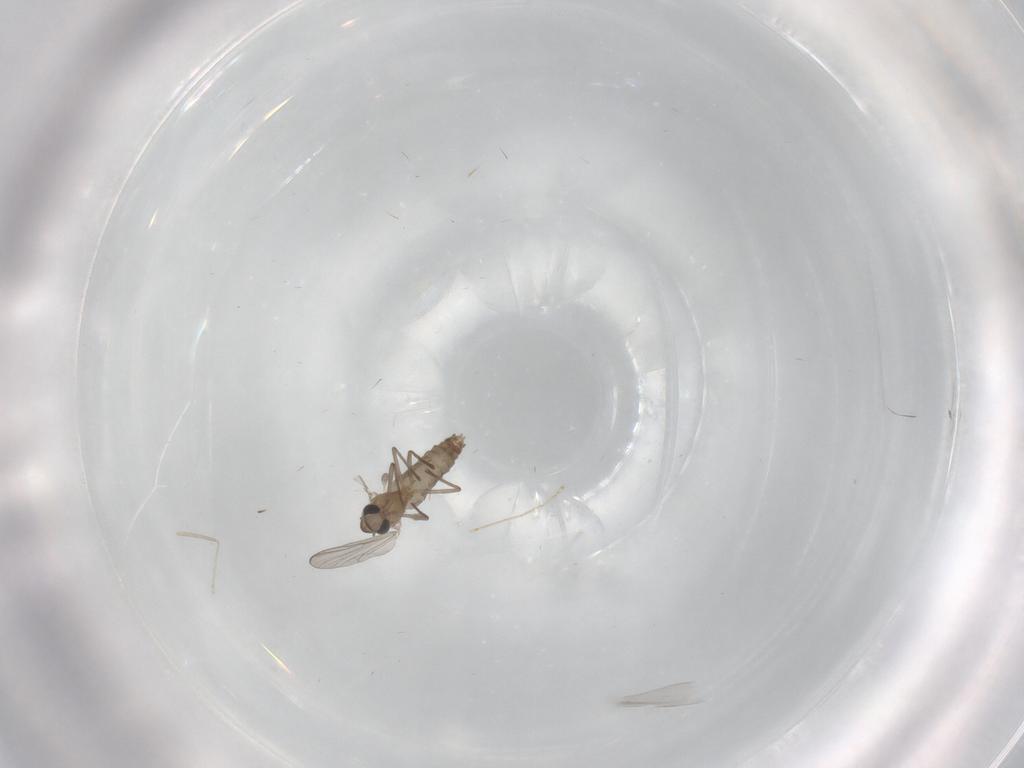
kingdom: Animalia
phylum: Arthropoda
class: Insecta
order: Diptera
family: Chironomidae
